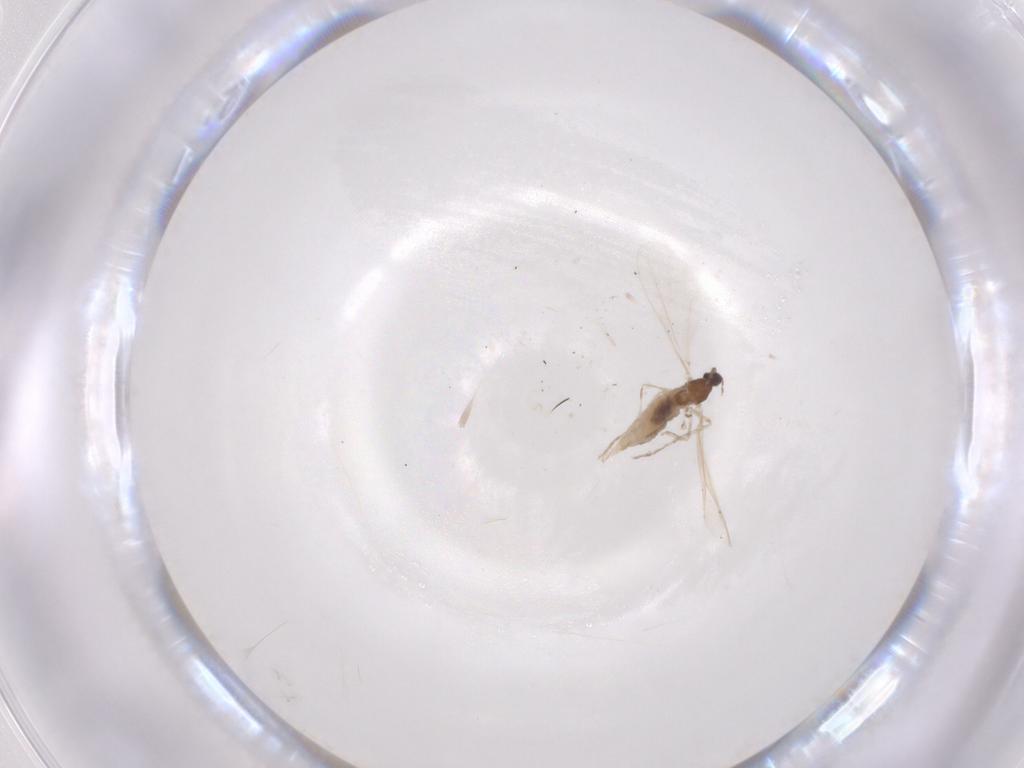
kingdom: Animalia
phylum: Arthropoda
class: Insecta
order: Diptera
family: Cecidomyiidae
